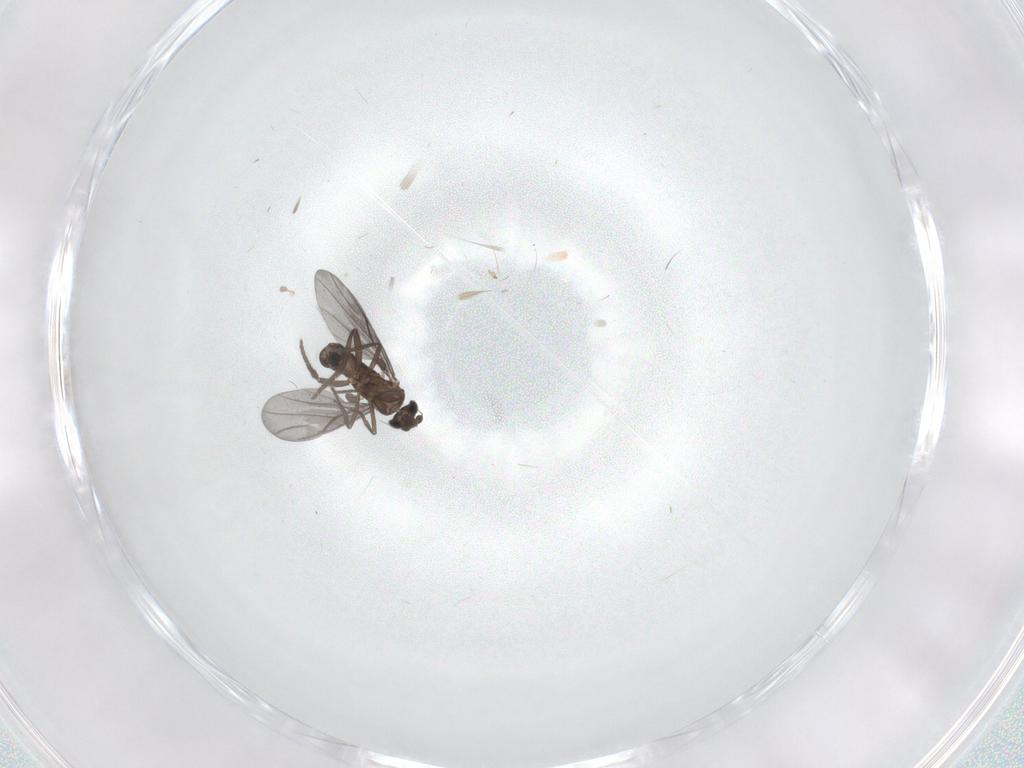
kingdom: Animalia
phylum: Arthropoda
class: Insecta
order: Diptera
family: Phoridae
